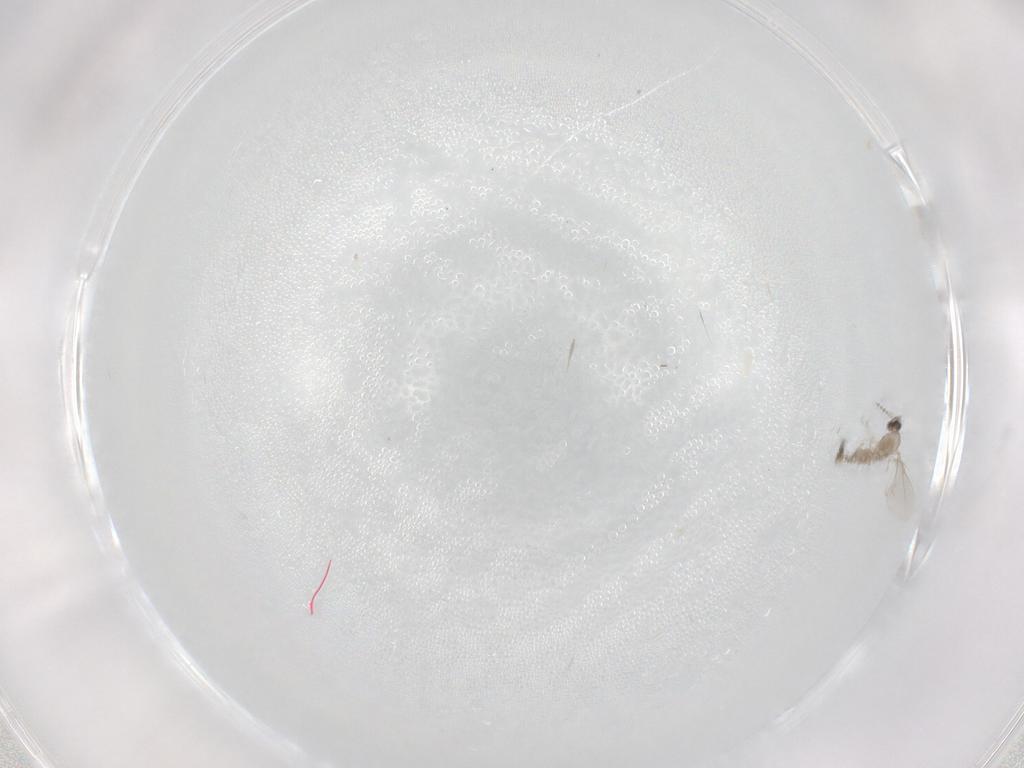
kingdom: Animalia
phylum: Arthropoda
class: Insecta
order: Diptera
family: Cecidomyiidae
